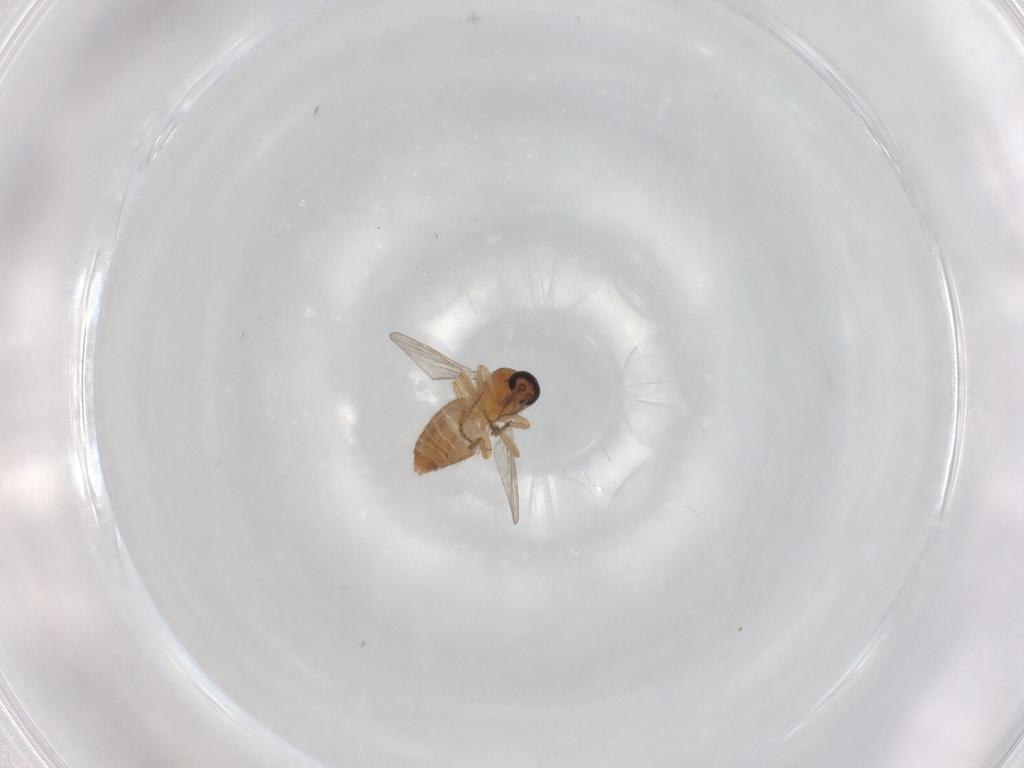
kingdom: Animalia
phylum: Arthropoda
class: Insecta
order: Diptera
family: Ceratopogonidae
